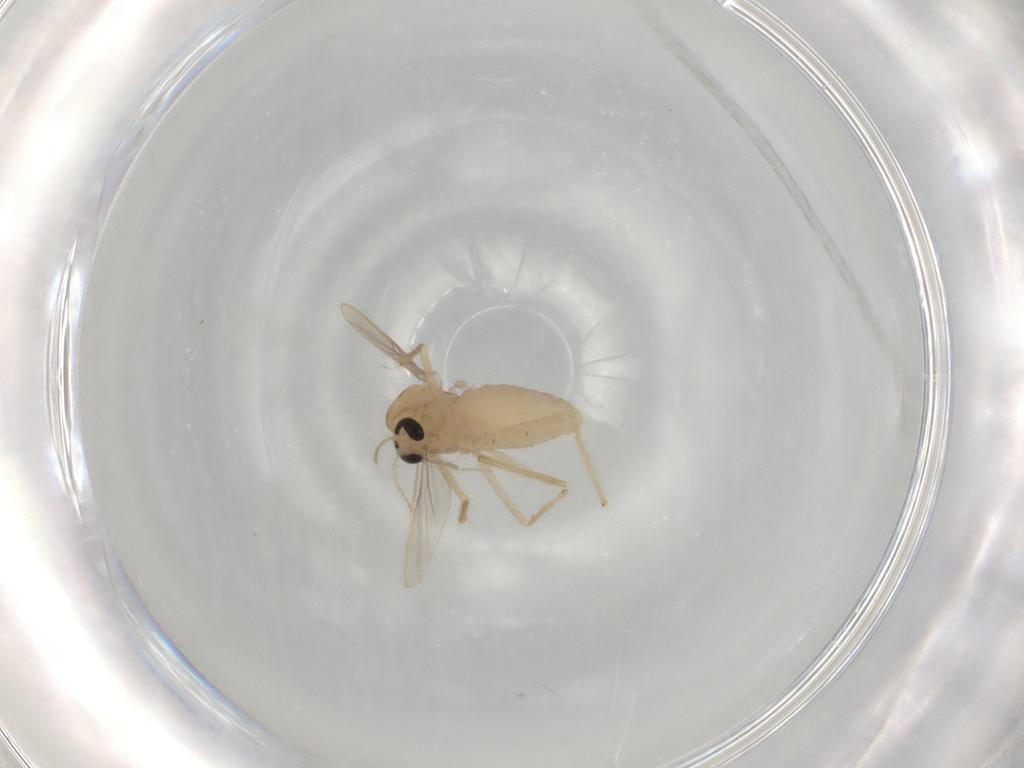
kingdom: Animalia
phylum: Arthropoda
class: Insecta
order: Diptera
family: Chironomidae
